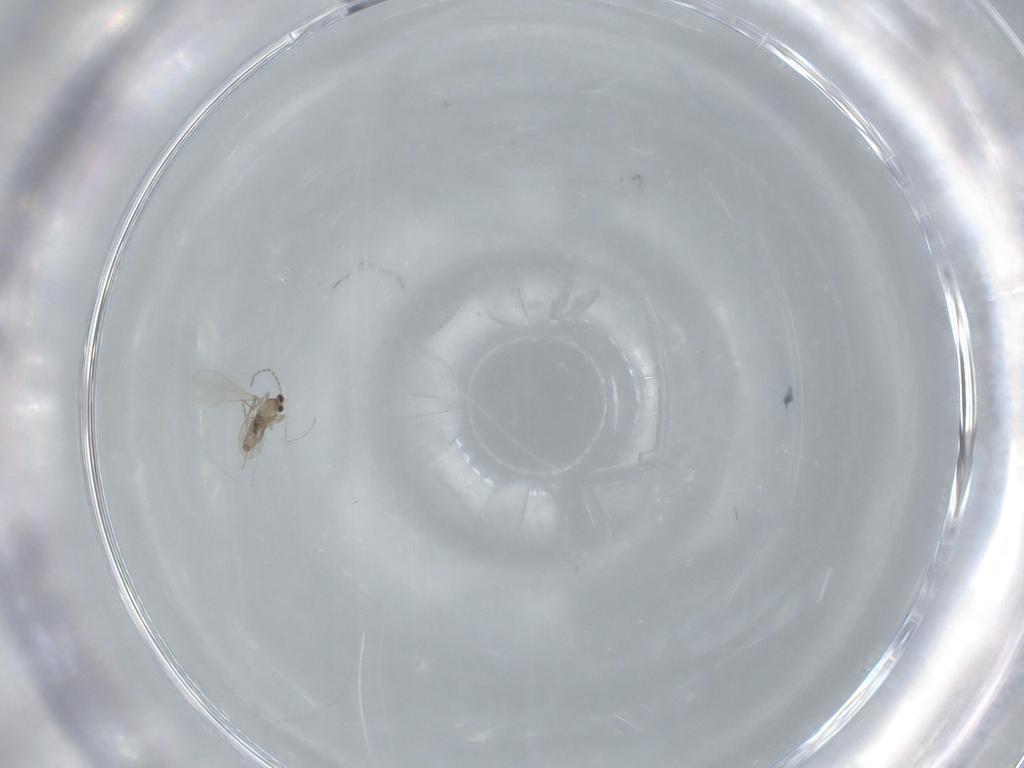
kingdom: Animalia
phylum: Arthropoda
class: Insecta
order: Diptera
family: Cecidomyiidae
